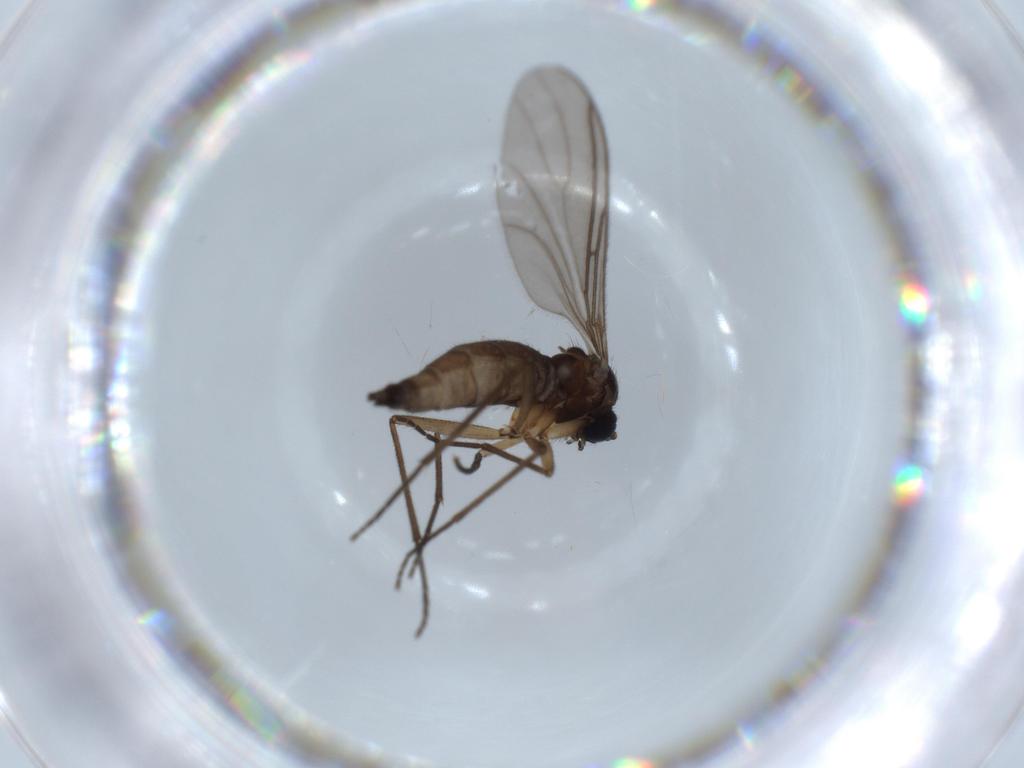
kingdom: Animalia
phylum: Arthropoda
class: Insecta
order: Diptera
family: Sciaridae
